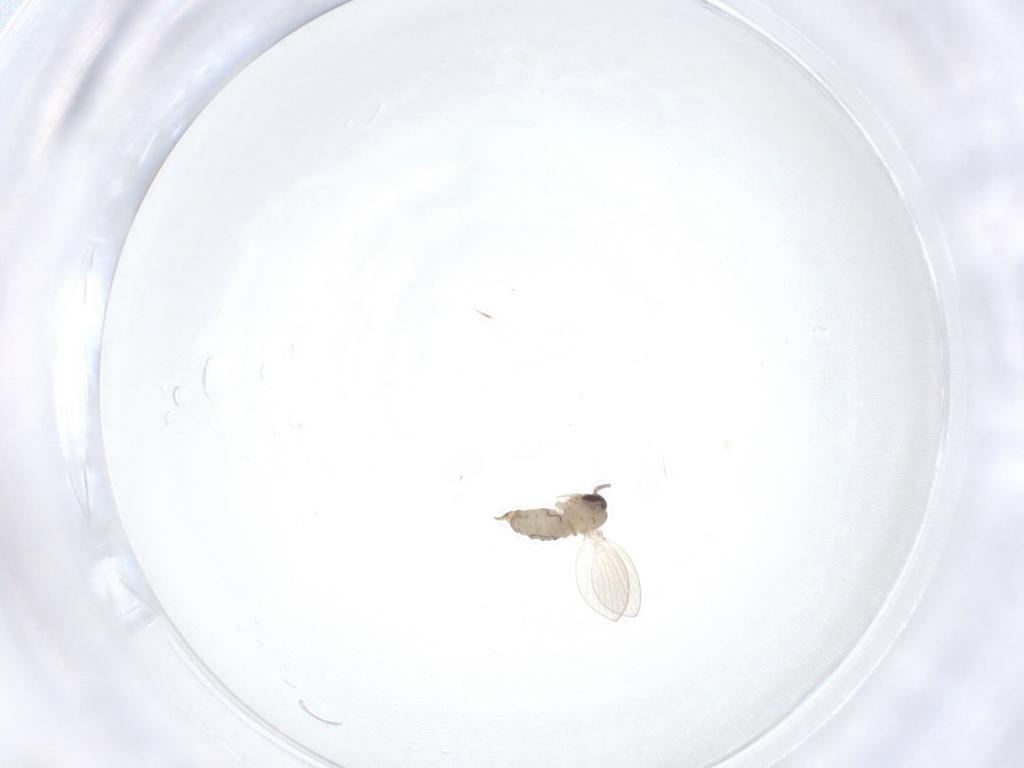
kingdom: Animalia
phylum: Arthropoda
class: Insecta
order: Diptera
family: Psychodidae
